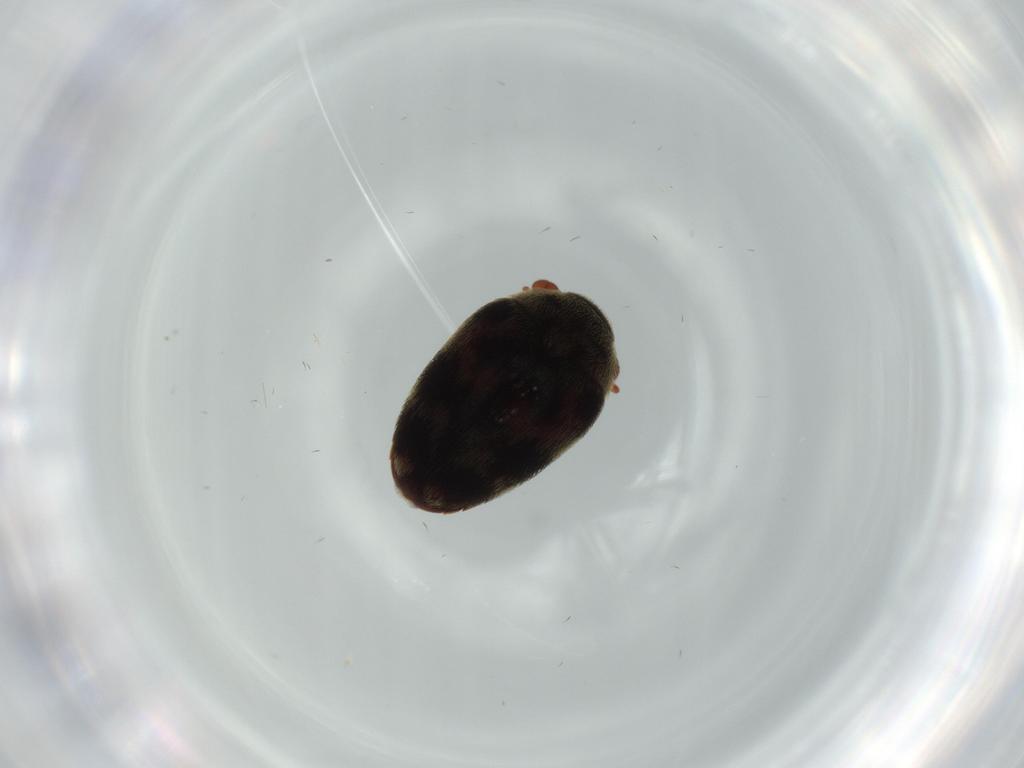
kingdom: Animalia
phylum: Arthropoda
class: Insecta
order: Coleoptera
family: Dermestidae
